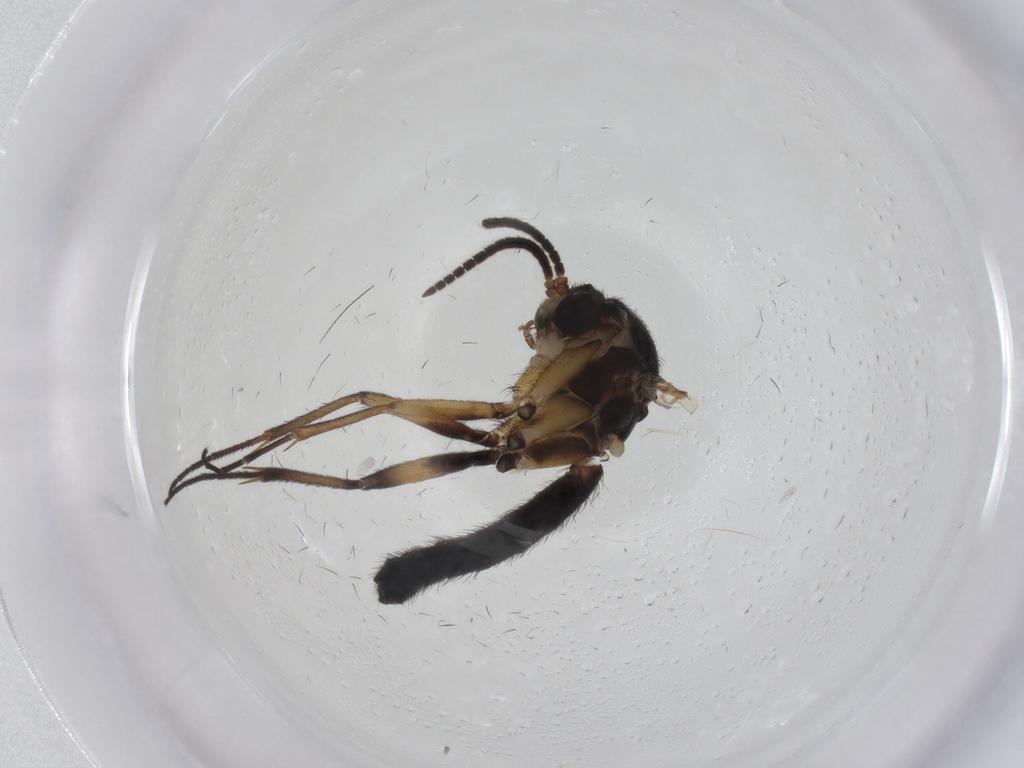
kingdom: Animalia
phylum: Arthropoda
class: Insecta
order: Diptera
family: Sciaridae
